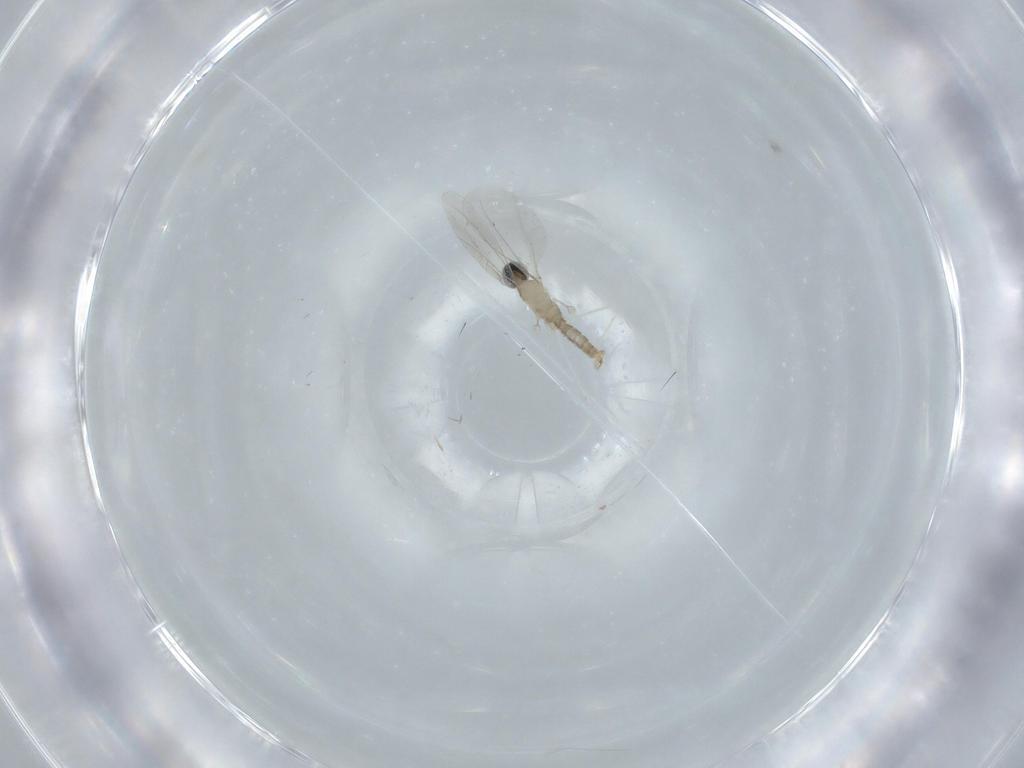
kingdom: Animalia
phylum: Arthropoda
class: Insecta
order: Diptera
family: Cecidomyiidae
